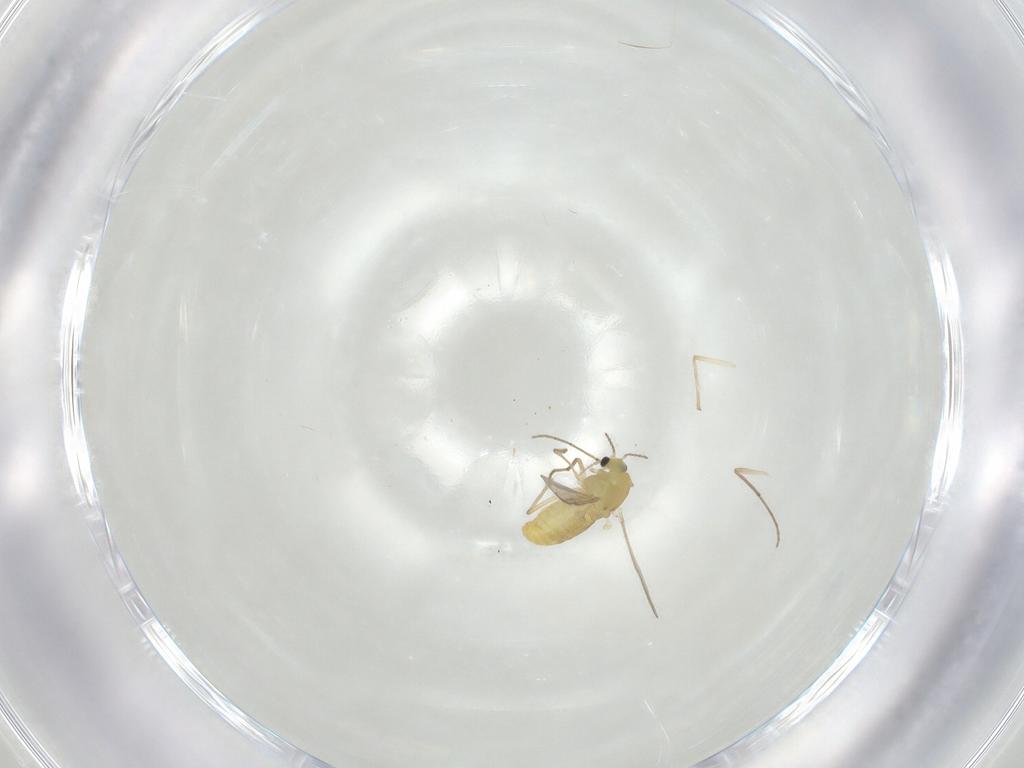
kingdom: Animalia
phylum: Arthropoda
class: Insecta
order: Diptera
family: Chironomidae
